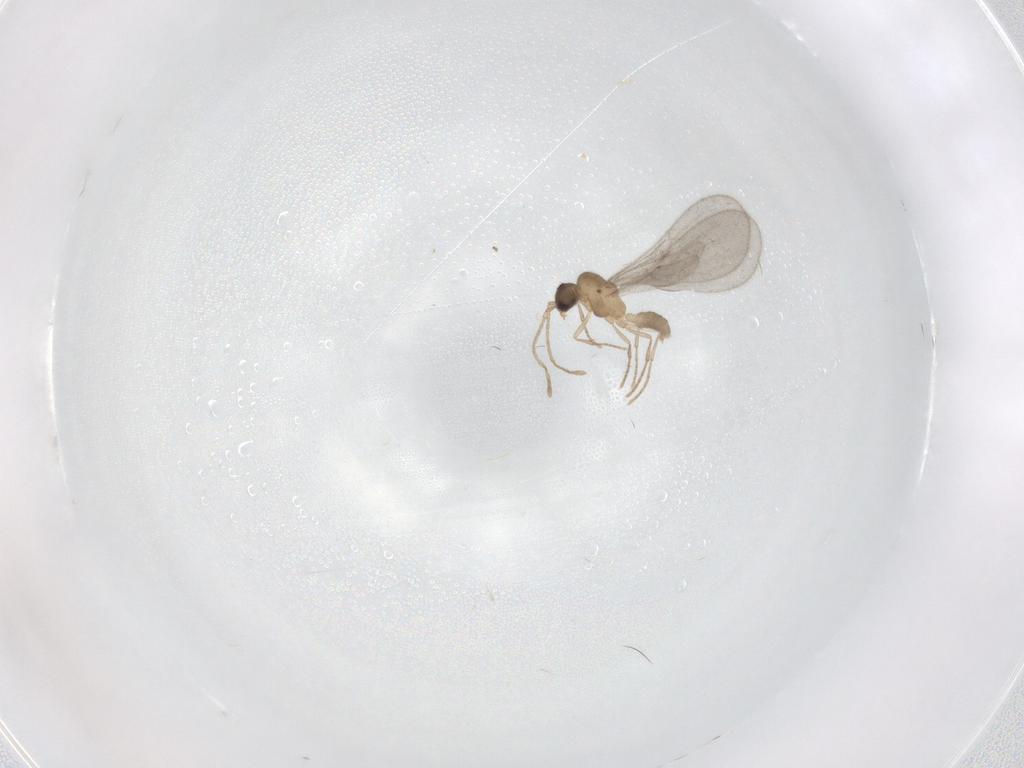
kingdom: Animalia
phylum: Arthropoda
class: Insecta
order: Hymenoptera
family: Formicidae
